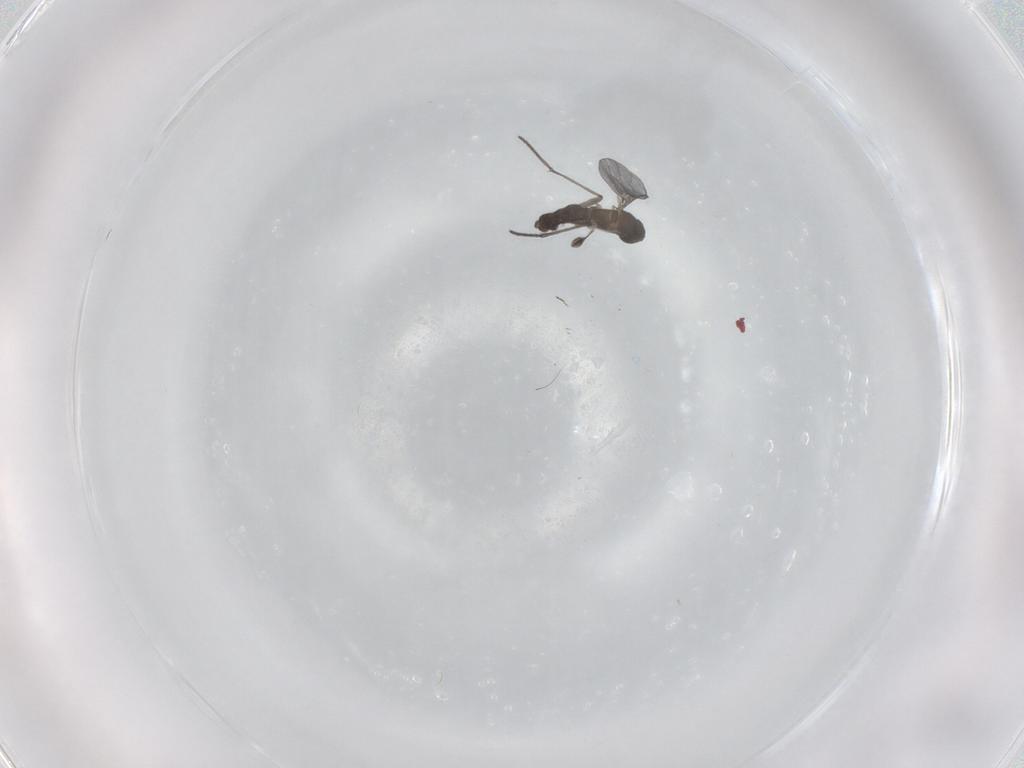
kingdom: Animalia
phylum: Arthropoda
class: Insecta
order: Diptera
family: Sciaridae
